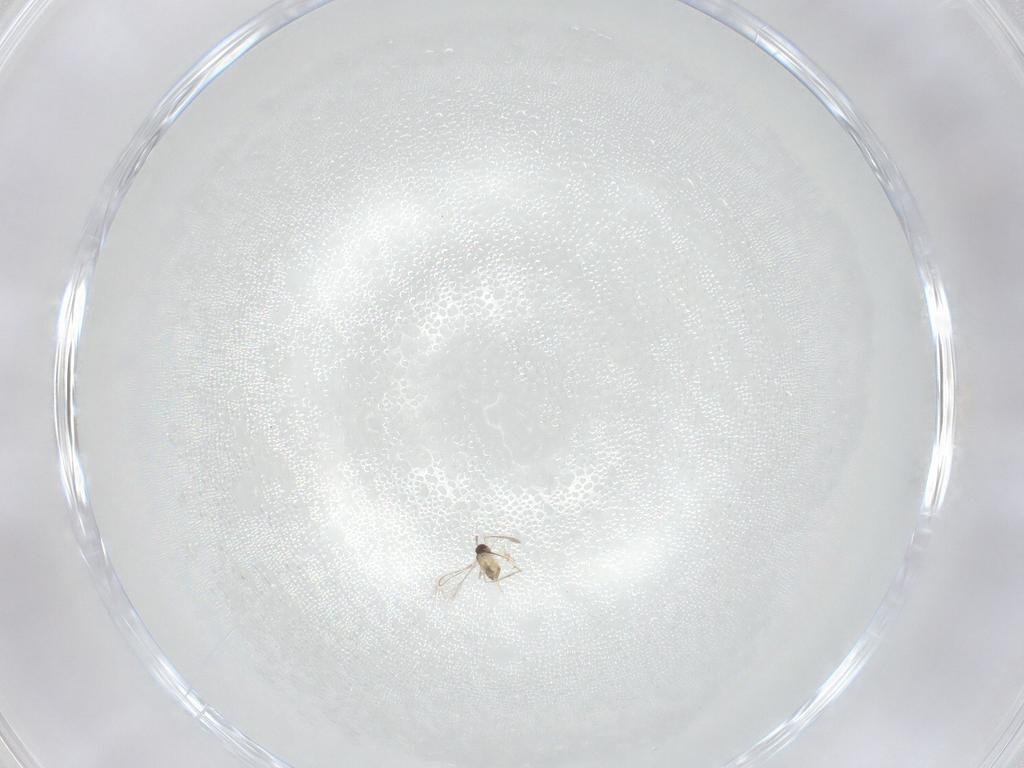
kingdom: Animalia
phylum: Arthropoda
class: Insecta
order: Hymenoptera
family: Mymaridae
